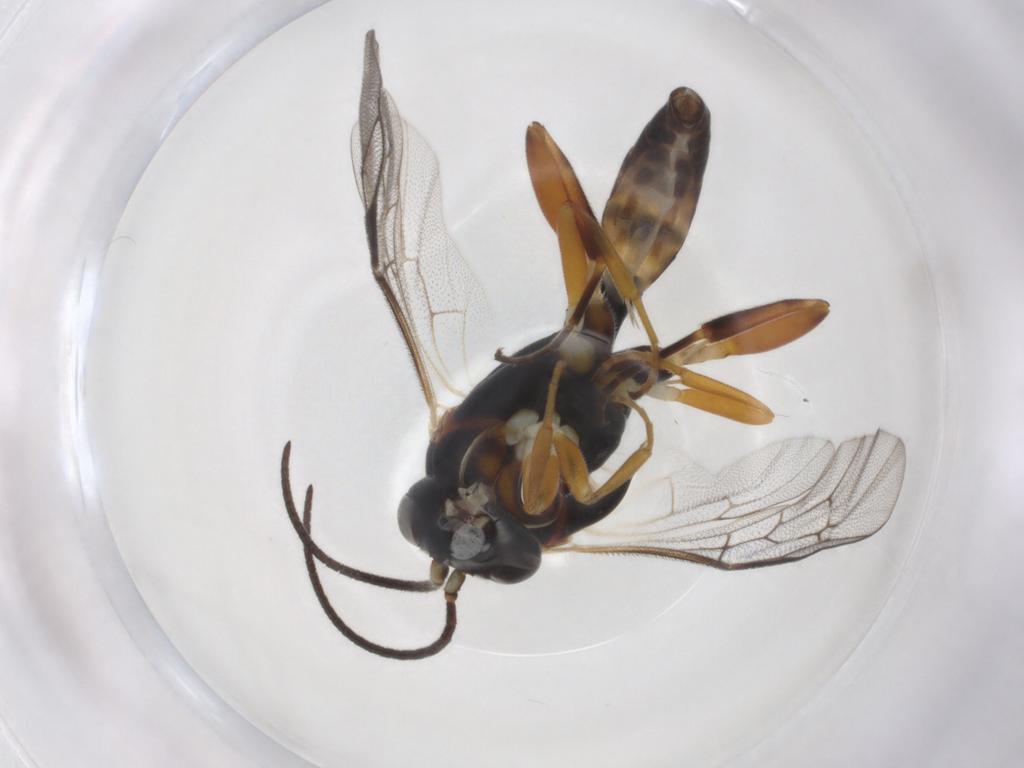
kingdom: Animalia
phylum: Arthropoda
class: Insecta
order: Hymenoptera
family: Ichneumonidae
